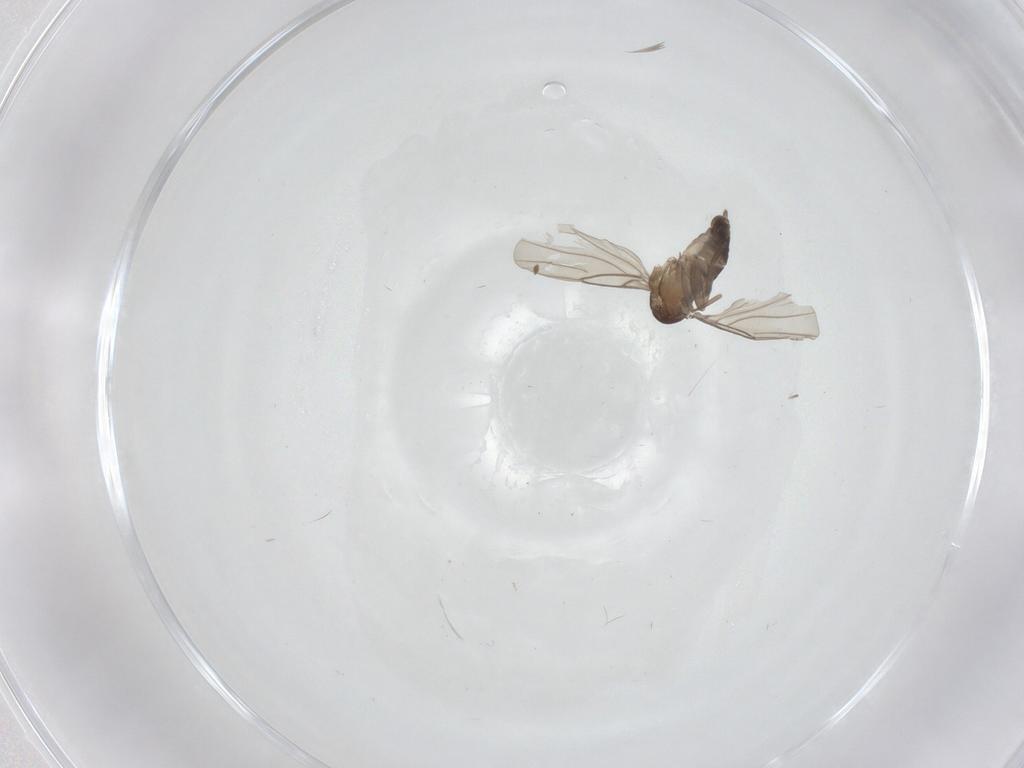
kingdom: Animalia
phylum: Arthropoda
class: Insecta
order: Diptera
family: Phoridae
